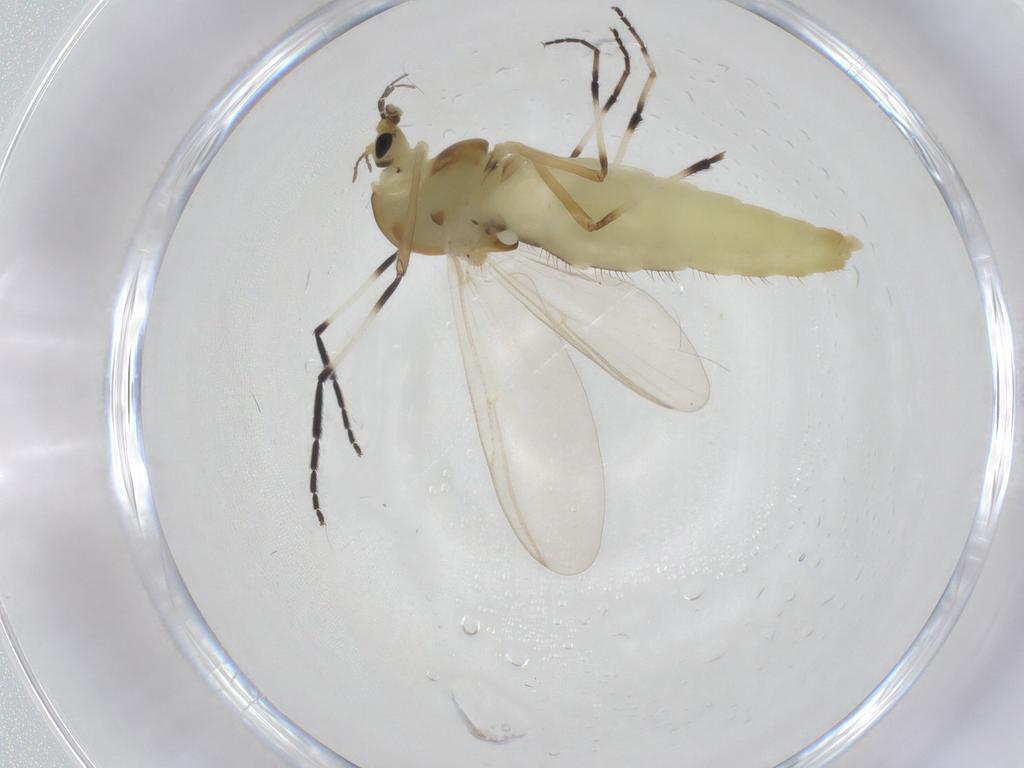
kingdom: Animalia
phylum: Arthropoda
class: Insecta
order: Diptera
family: Chironomidae
